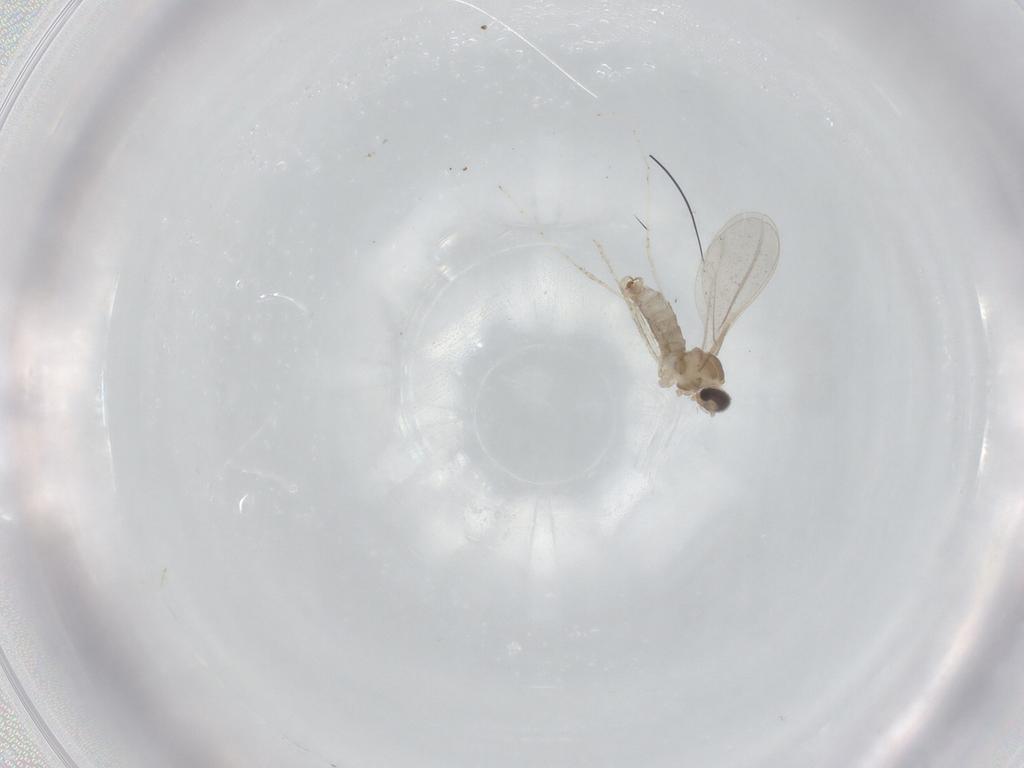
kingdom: Animalia
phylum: Arthropoda
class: Insecta
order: Diptera
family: Cecidomyiidae
